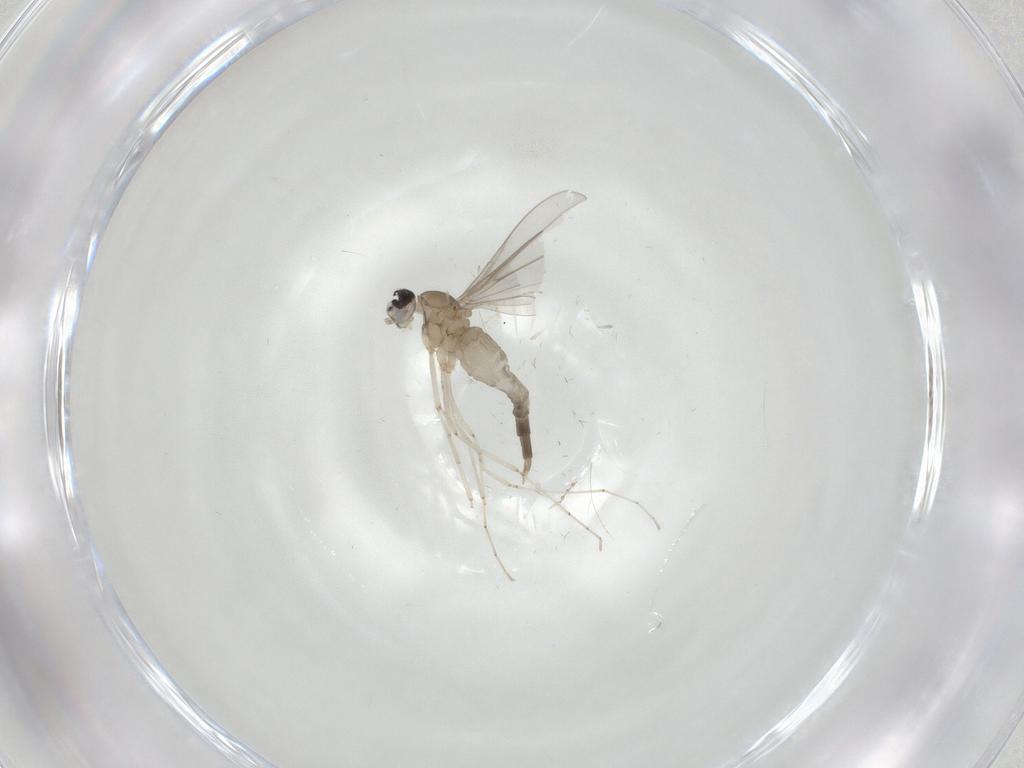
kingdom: Animalia
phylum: Arthropoda
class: Insecta
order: Diptera
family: Cecidomyiidae
